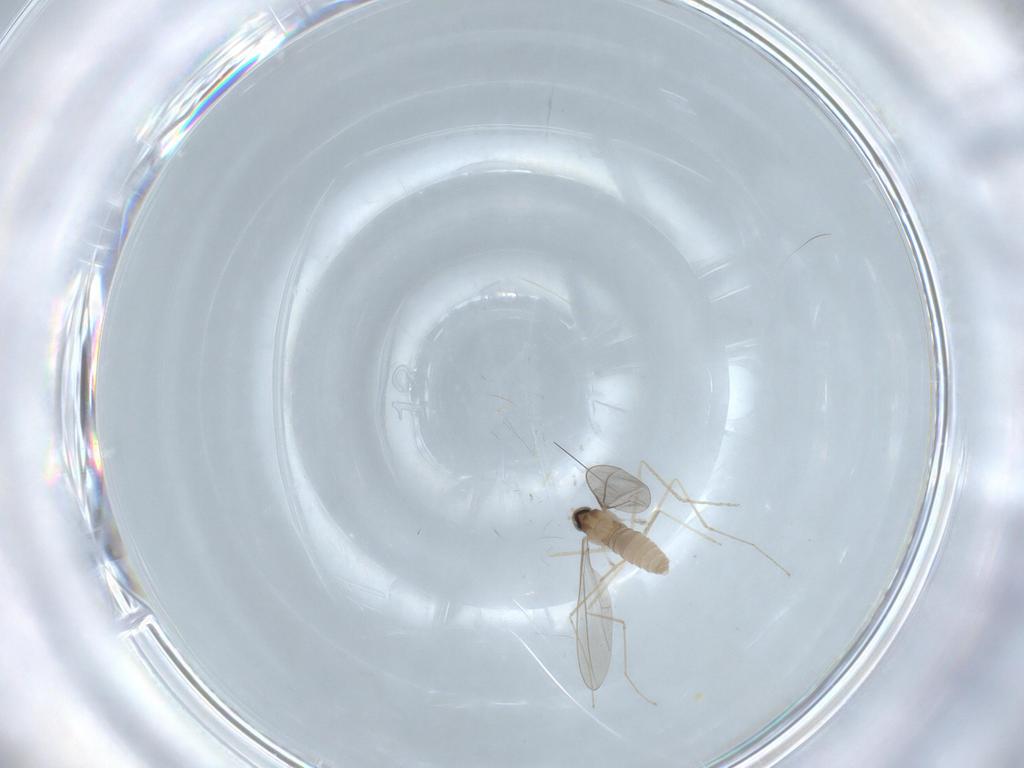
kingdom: Animalia
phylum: Arthropoda
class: Insecta
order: Diptera
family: Cecidomyiidae
